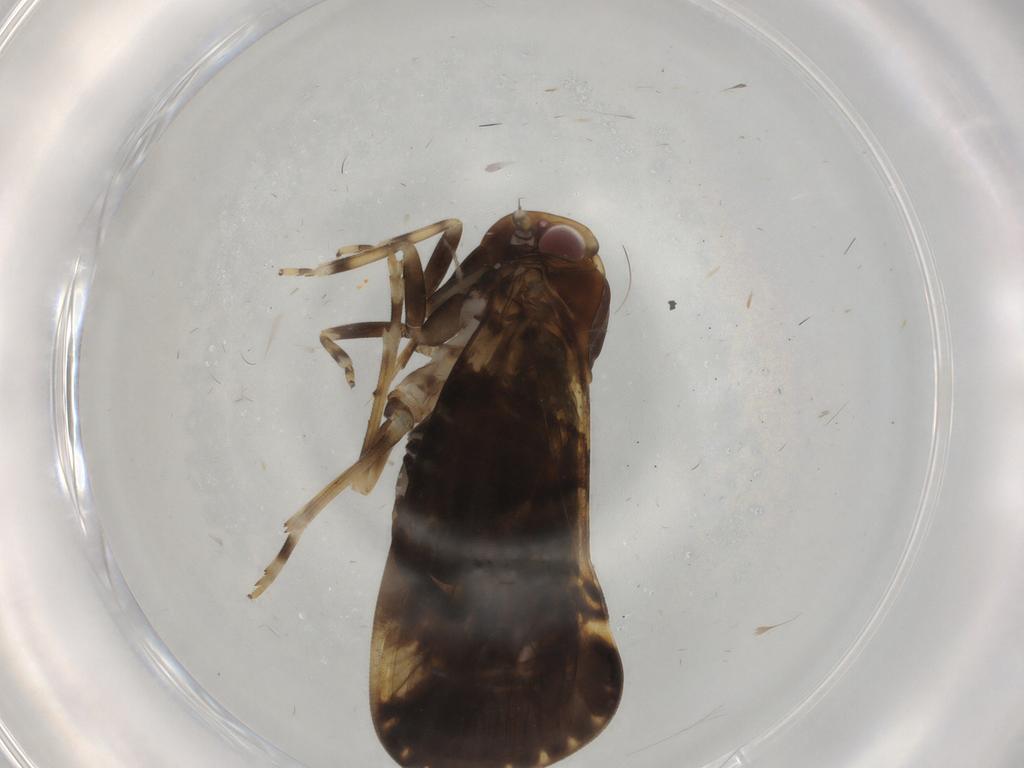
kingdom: Animalia
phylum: Arthropoda
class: Insecta
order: Hemiptera
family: Cixiidae
